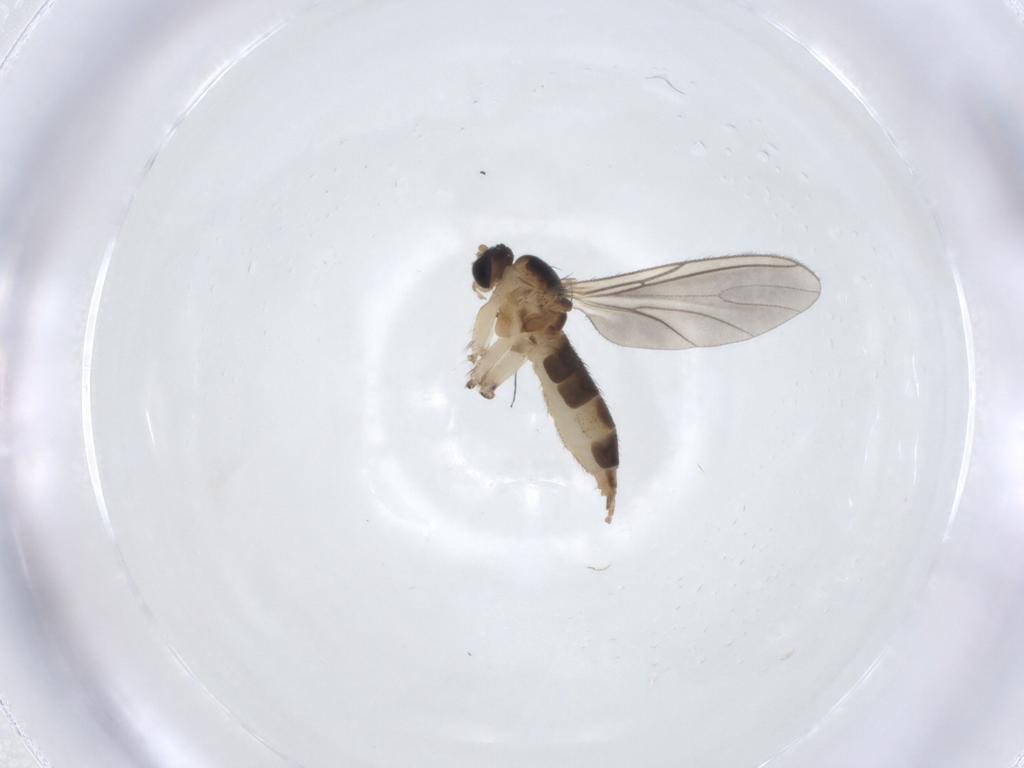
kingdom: Animalia
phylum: Arthropoda
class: Insecta
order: Diptera
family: Sciaridae
